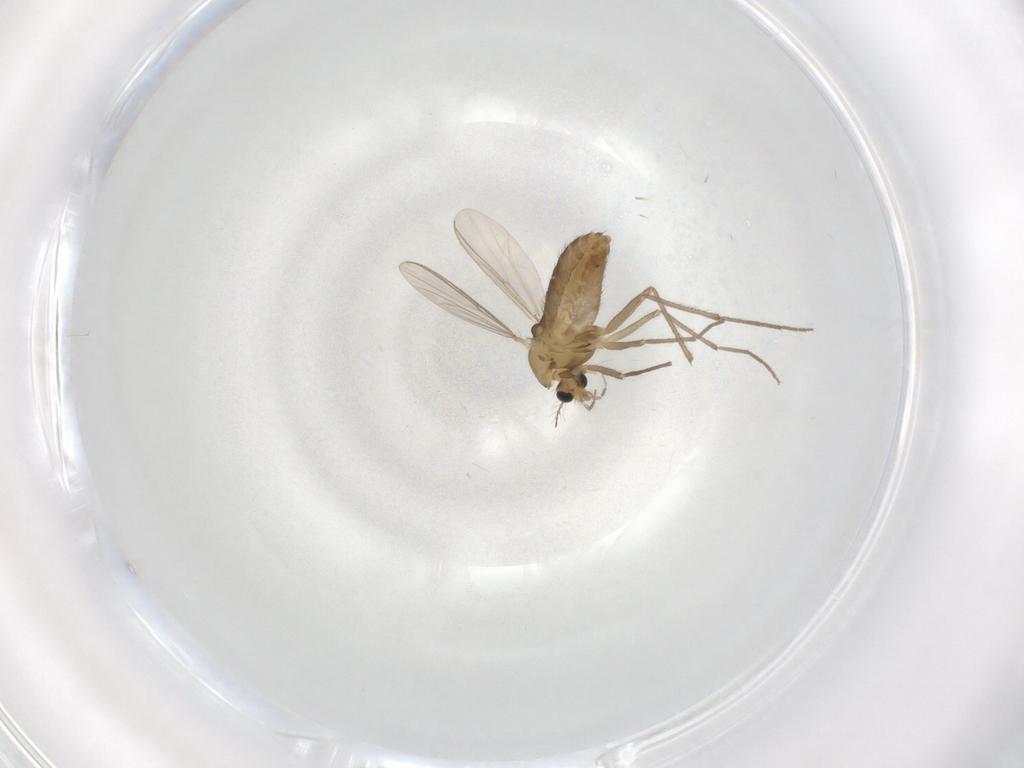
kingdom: Animalia
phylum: Arthropoda
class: Insecta
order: Diptera
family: Chironomidae
